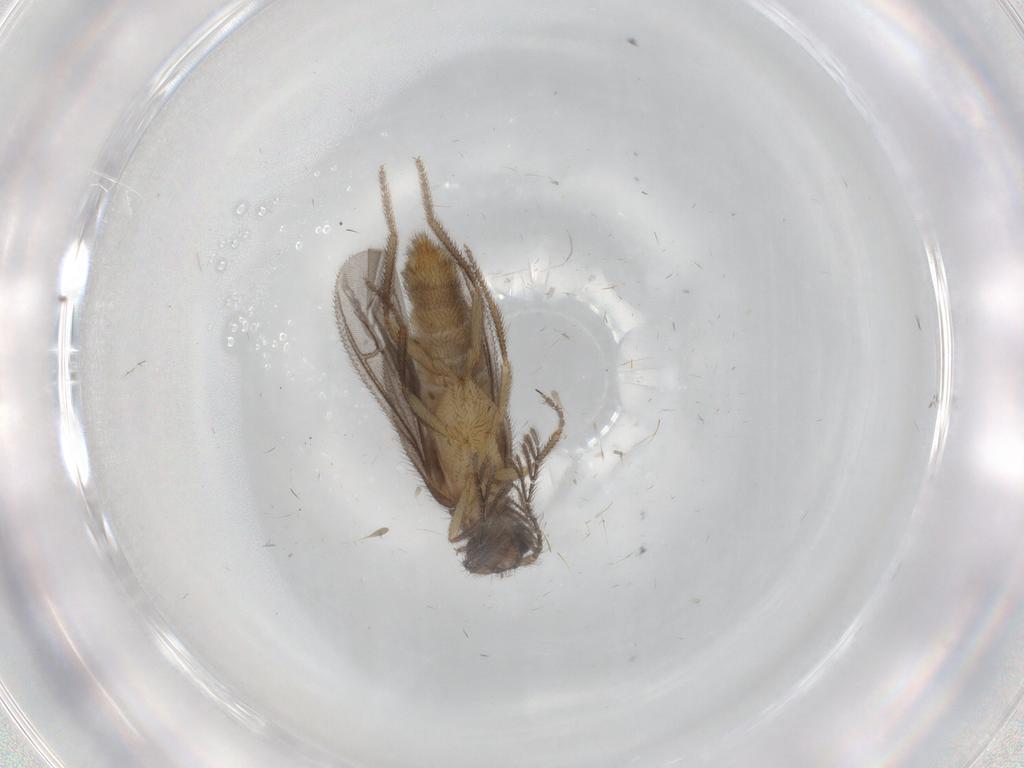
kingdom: Animalia
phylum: Arthropoda
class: Insecta
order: Coleoptera
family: Phengodidae
